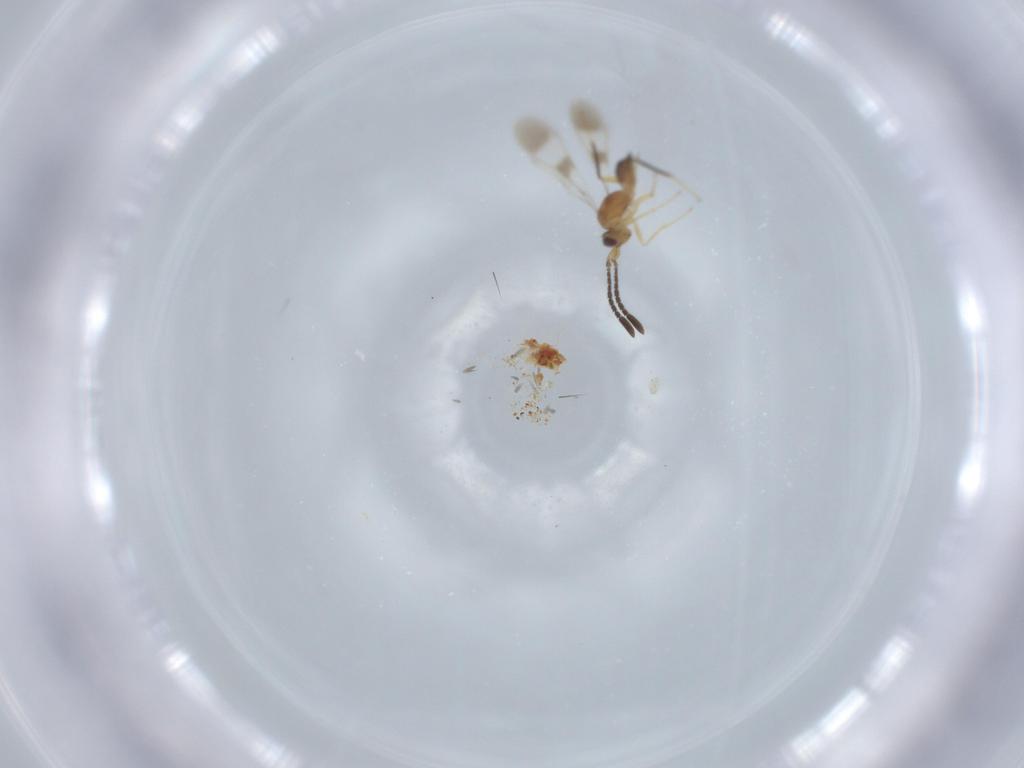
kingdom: Animalia
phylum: Arthropoda
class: Insecta
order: Hymenoptera
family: Mymaridae
